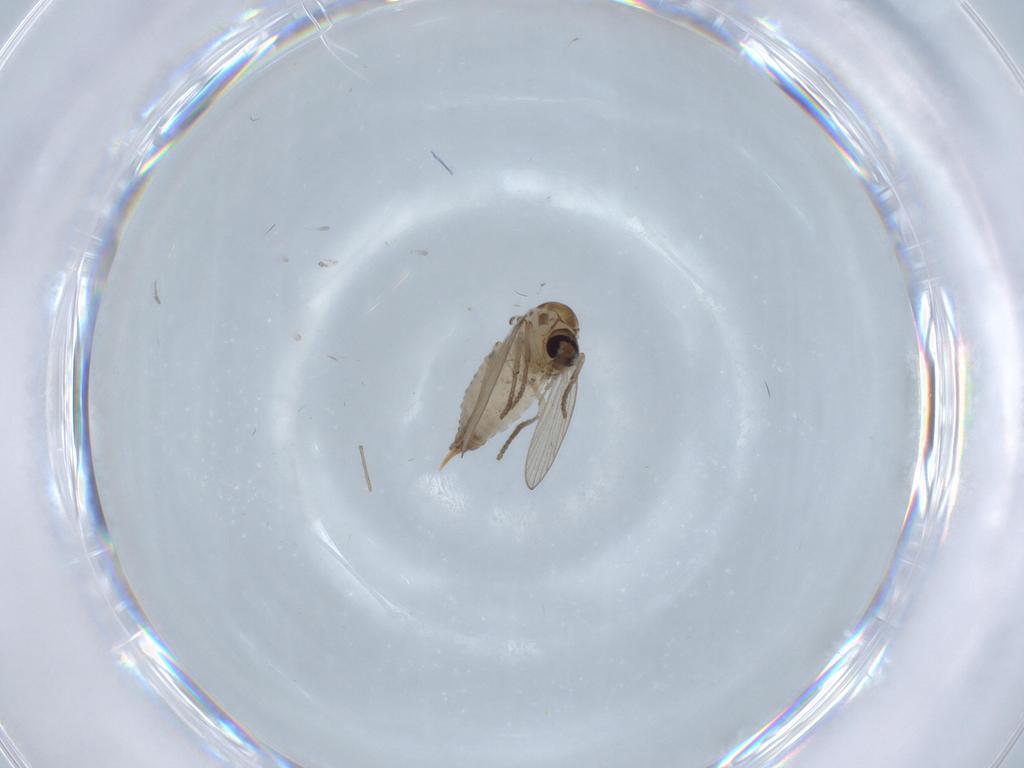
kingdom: Animalia
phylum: Arthropoda
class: Insecta
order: Diptera
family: Psychodidae
